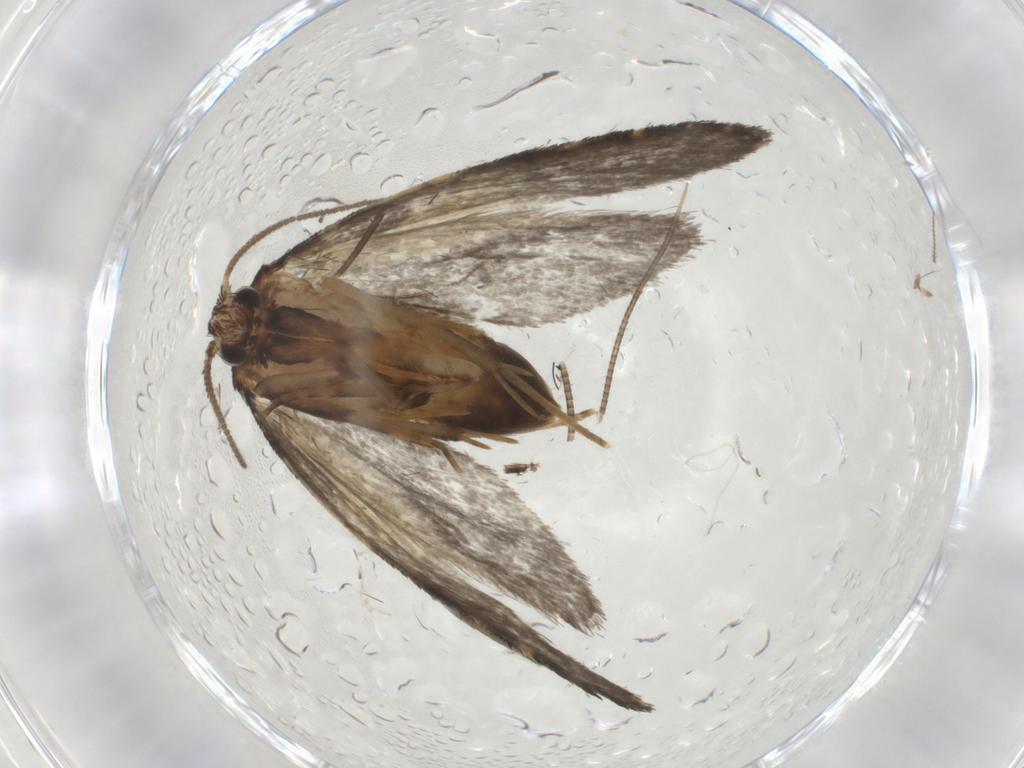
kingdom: Animalia
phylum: Arthropoda
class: Insecta
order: Lepidoptera
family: Psychidae
